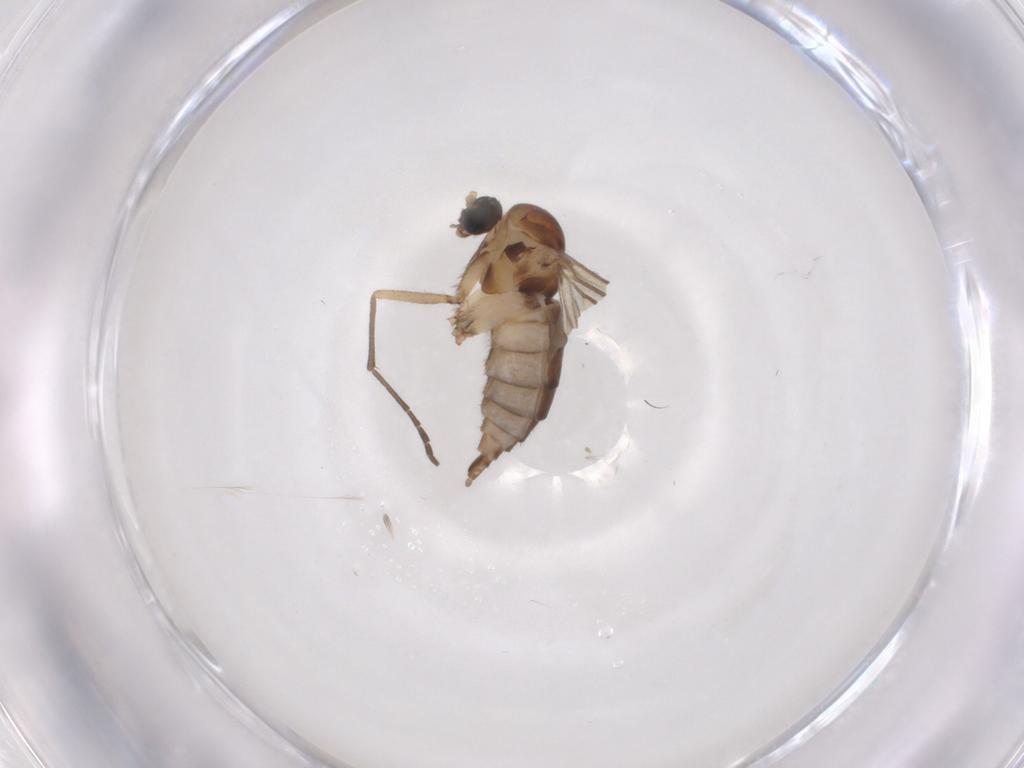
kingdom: Animalia
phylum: Arthropoda
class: Insecta
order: Diptera
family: Sciaridae
